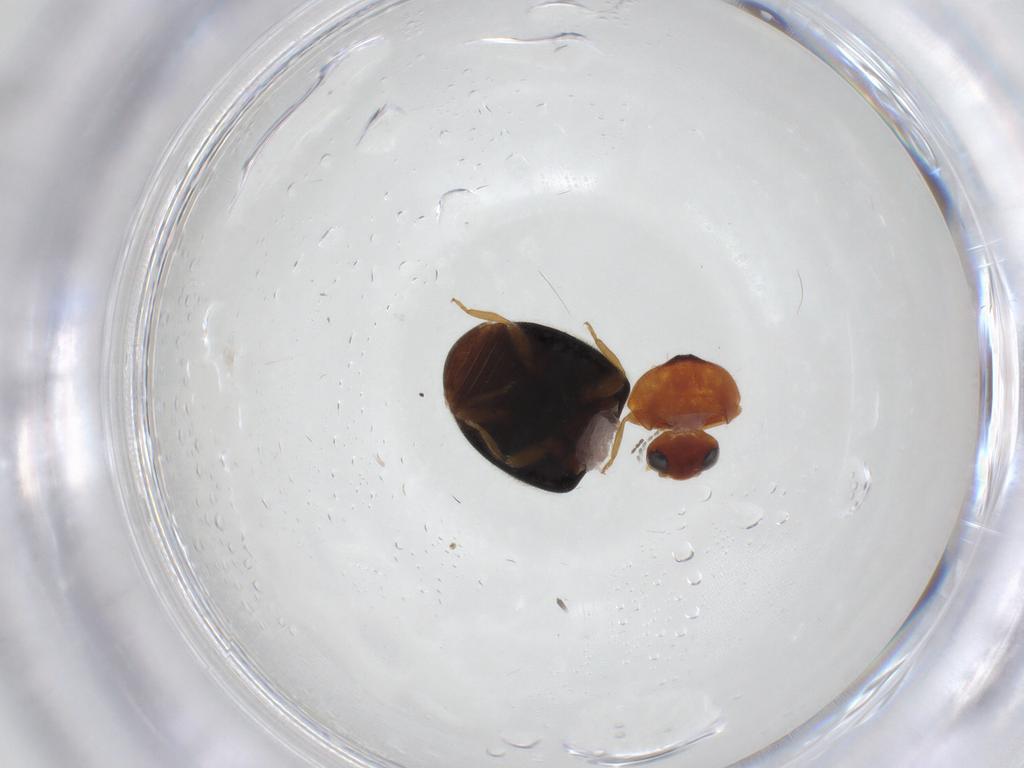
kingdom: Animalia
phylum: Arthropoda
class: Insecta
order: Coleoptera
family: Coccinellidae
